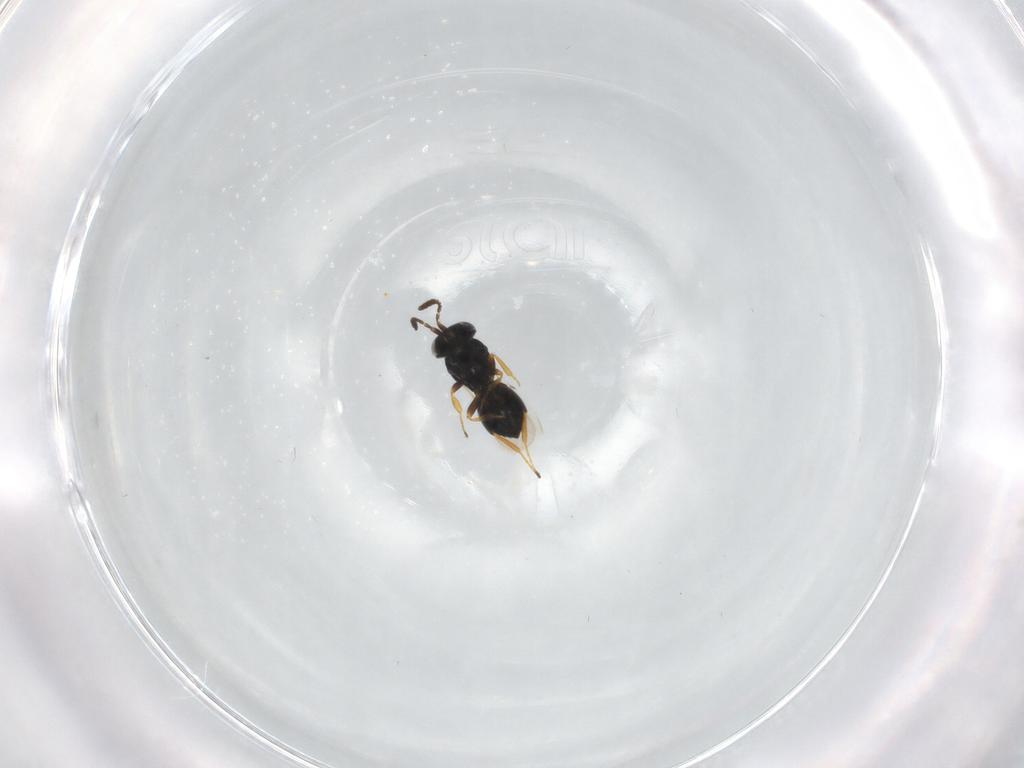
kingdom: Animalia
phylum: Arthropoda
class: Insecta
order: Hymenoptera
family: Scelionidae
